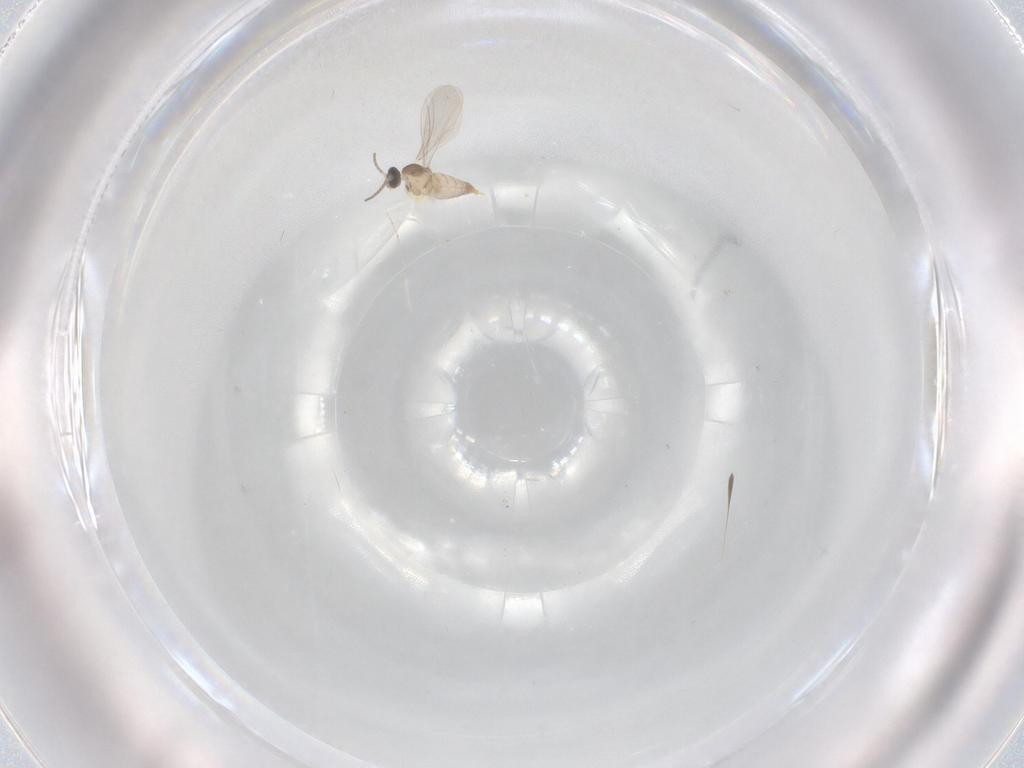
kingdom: Animalia
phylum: Arthropoda
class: Insecta
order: Diptera
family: Cecidomyiidae
